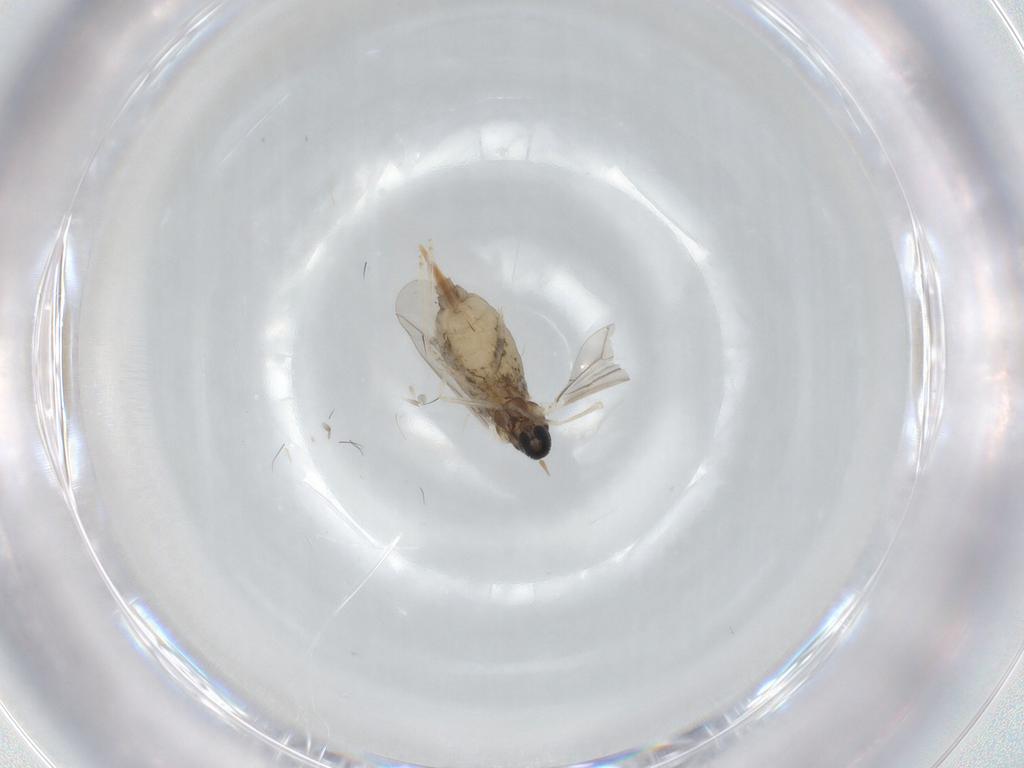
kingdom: Animalia
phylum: Arthropoda
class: Insecta
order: Diptera
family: Cecidomyiidae
